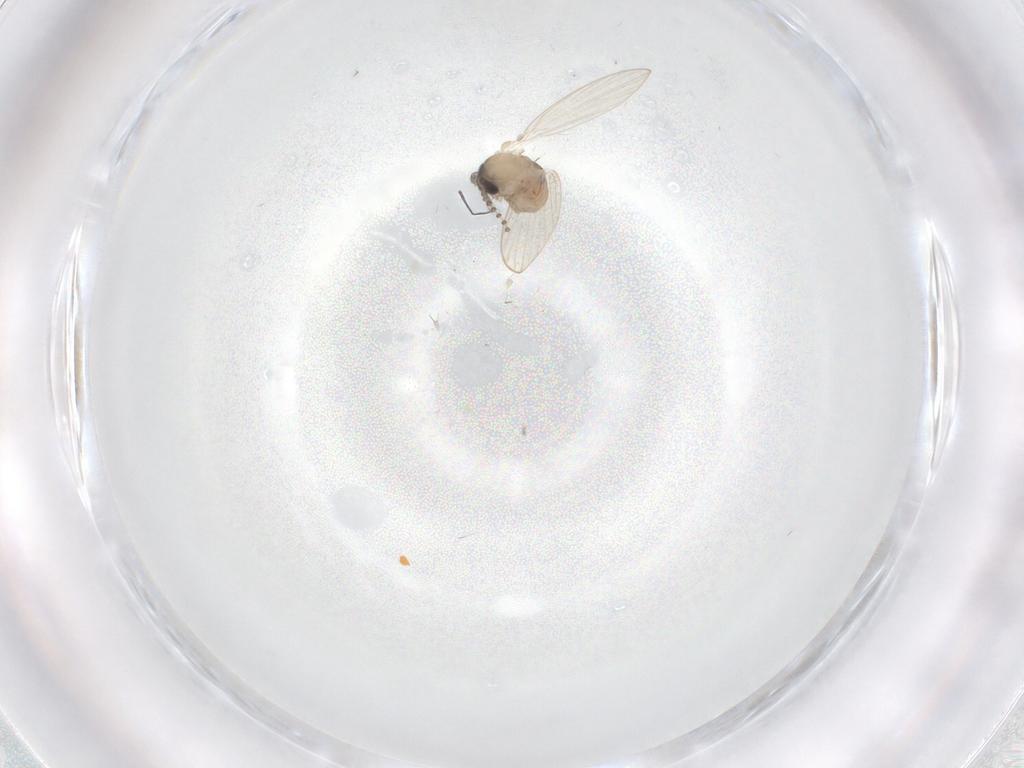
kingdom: Animalia
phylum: Arthropoda
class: Insecta
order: Diptera
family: Psychodidae
